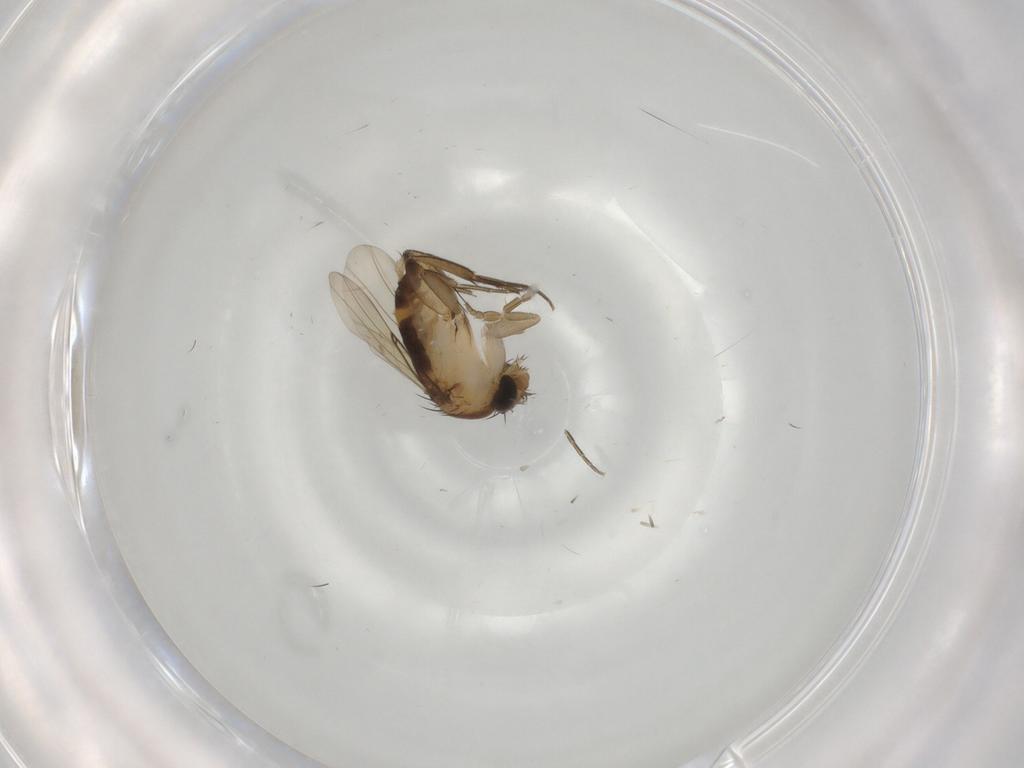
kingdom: Animalia
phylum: Arthropoda
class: Insecta
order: Diptera
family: Phoridae
